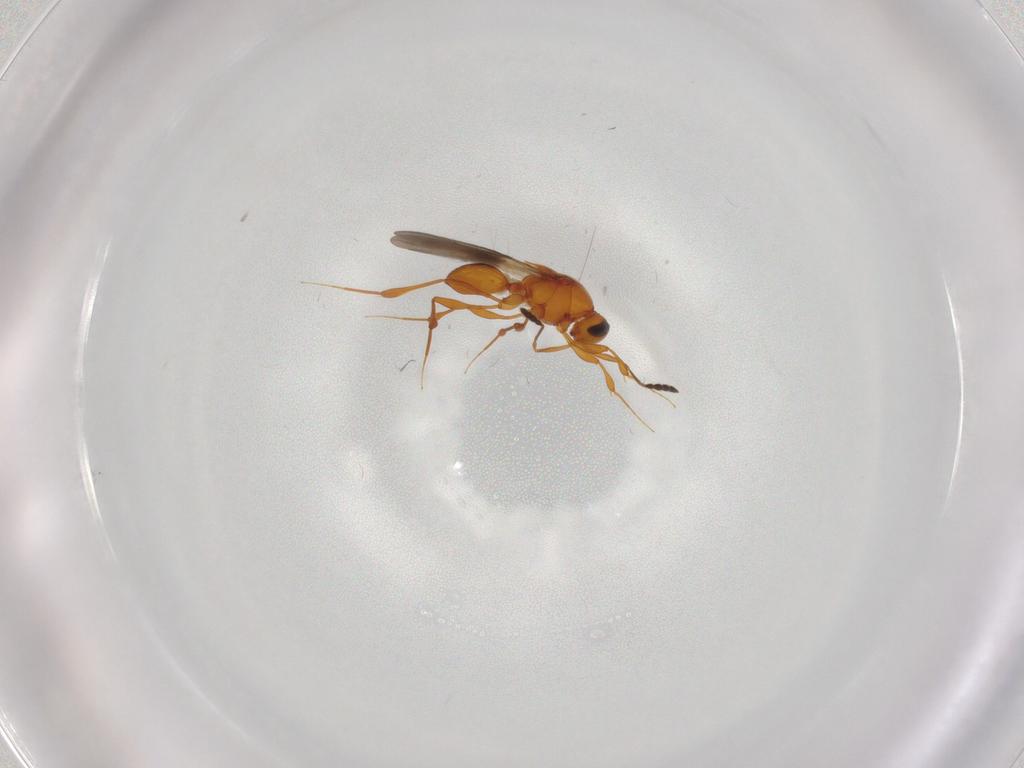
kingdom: Animalia
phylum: Arthropoda
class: Insecta
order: Hymenoptera
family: Platygastridae
